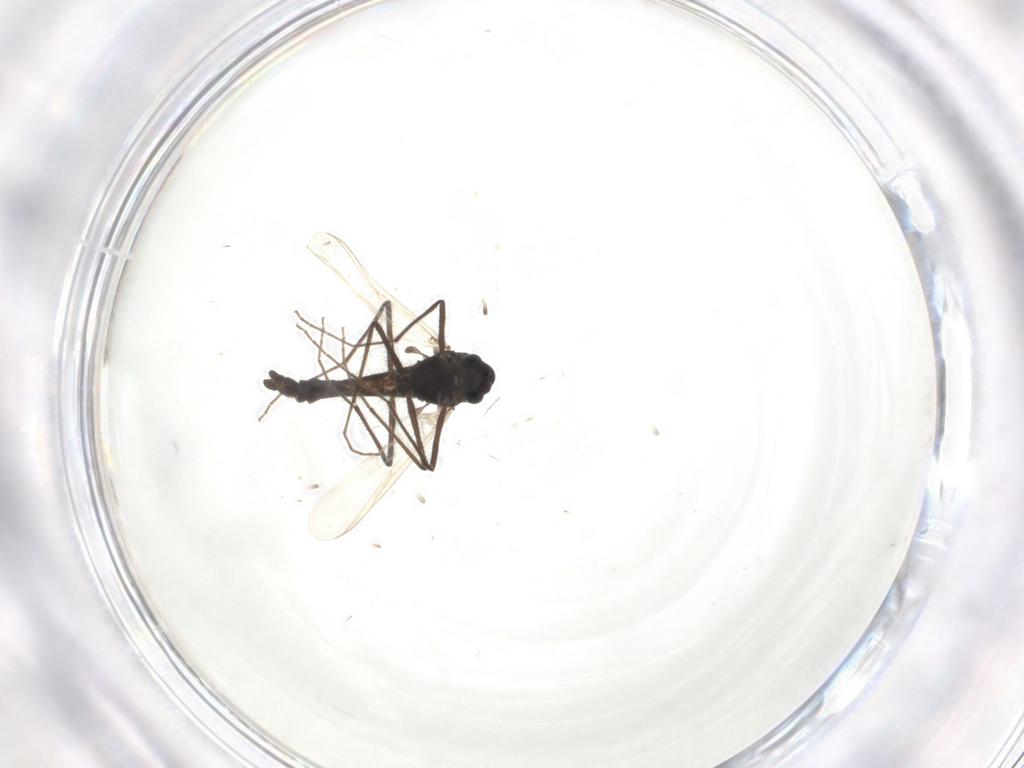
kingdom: Animalia
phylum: Arthropoda
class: Insecta
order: Diptera
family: Chironomidae
